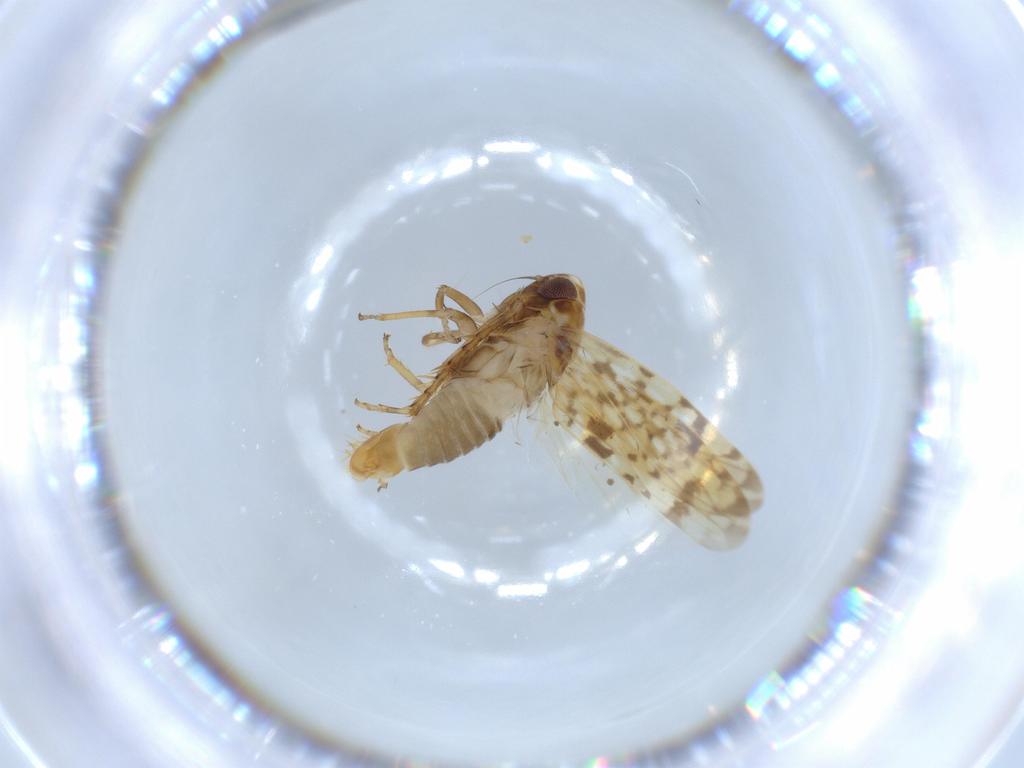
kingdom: Animalia
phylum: Arthropoda
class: Insecta
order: Hemiptera
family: Cicadellidae
